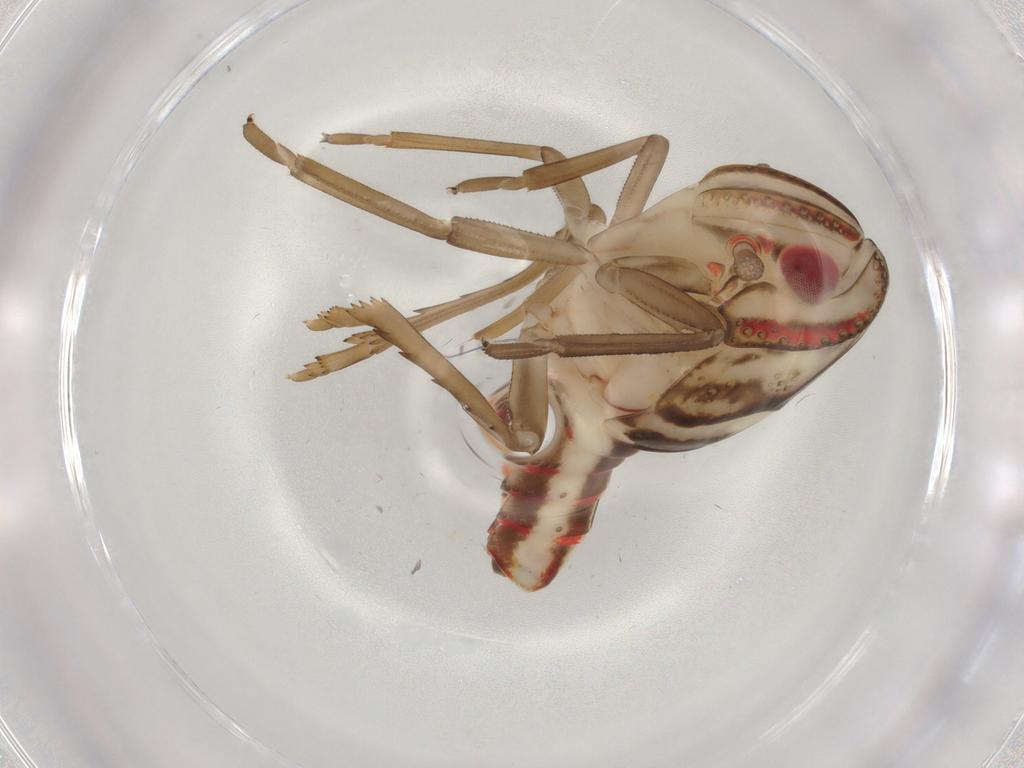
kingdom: Animalia
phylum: Arthropoda
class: Insecta
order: Hemiptera
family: Nogodinidae
